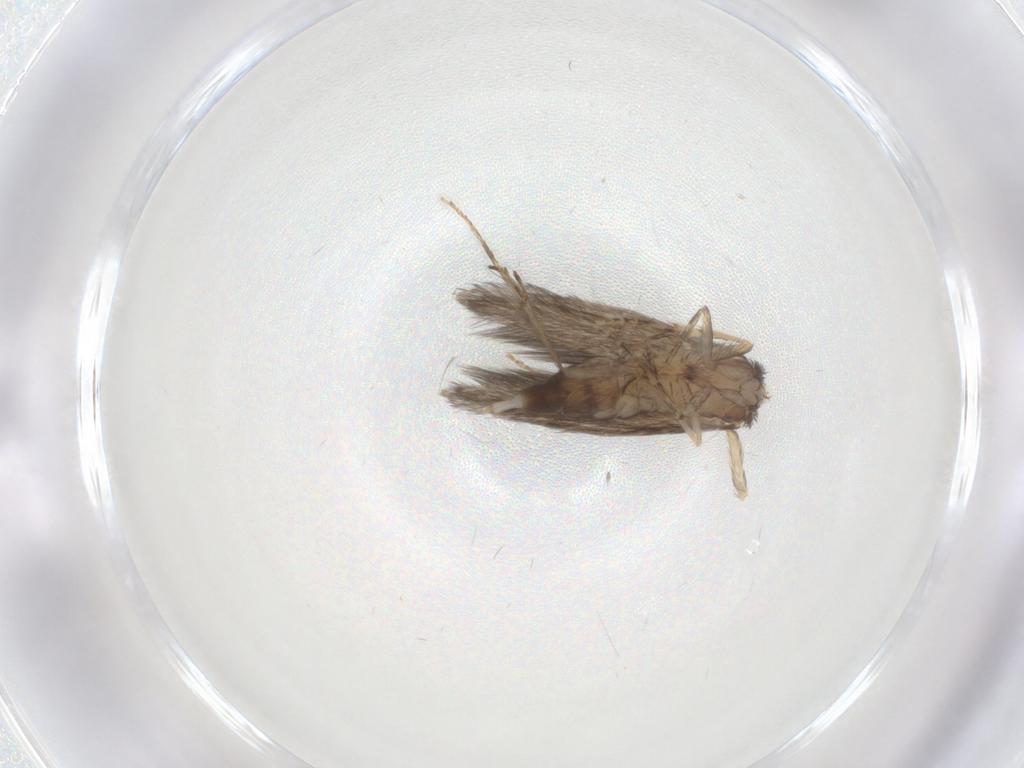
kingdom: Animalia
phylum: Arthropoda
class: Insecta
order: Trichoptera
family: Hydroptilidae
